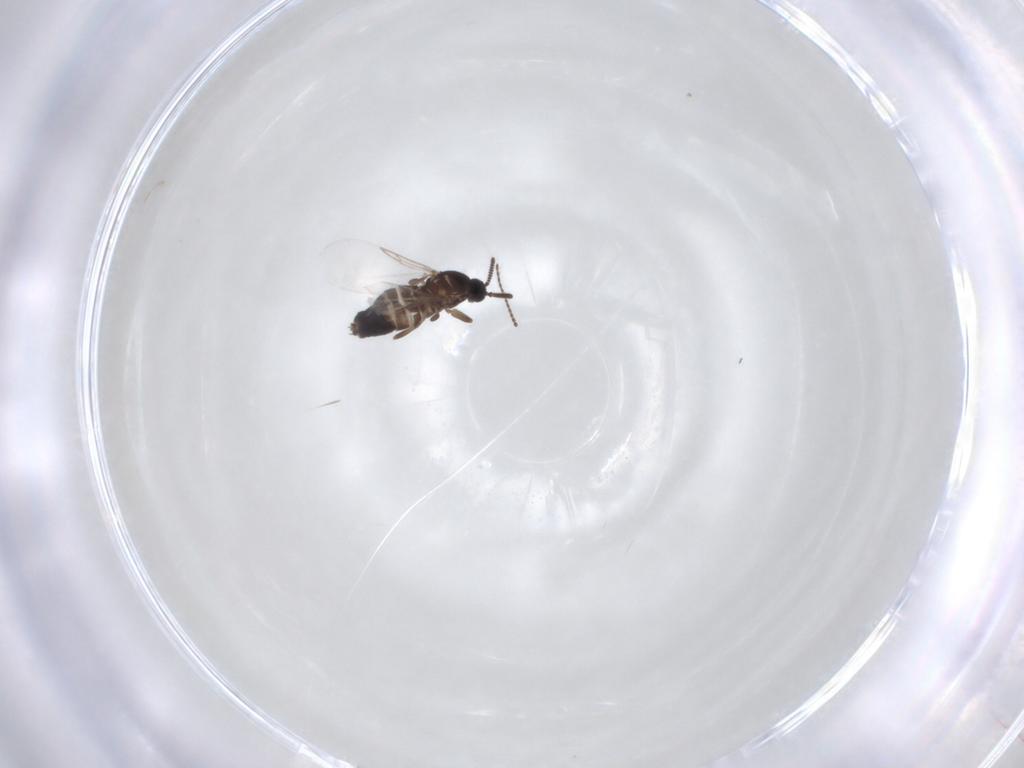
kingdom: Animalia
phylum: Arthropoda
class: Insecta
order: Diptera
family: Scatopsidae
